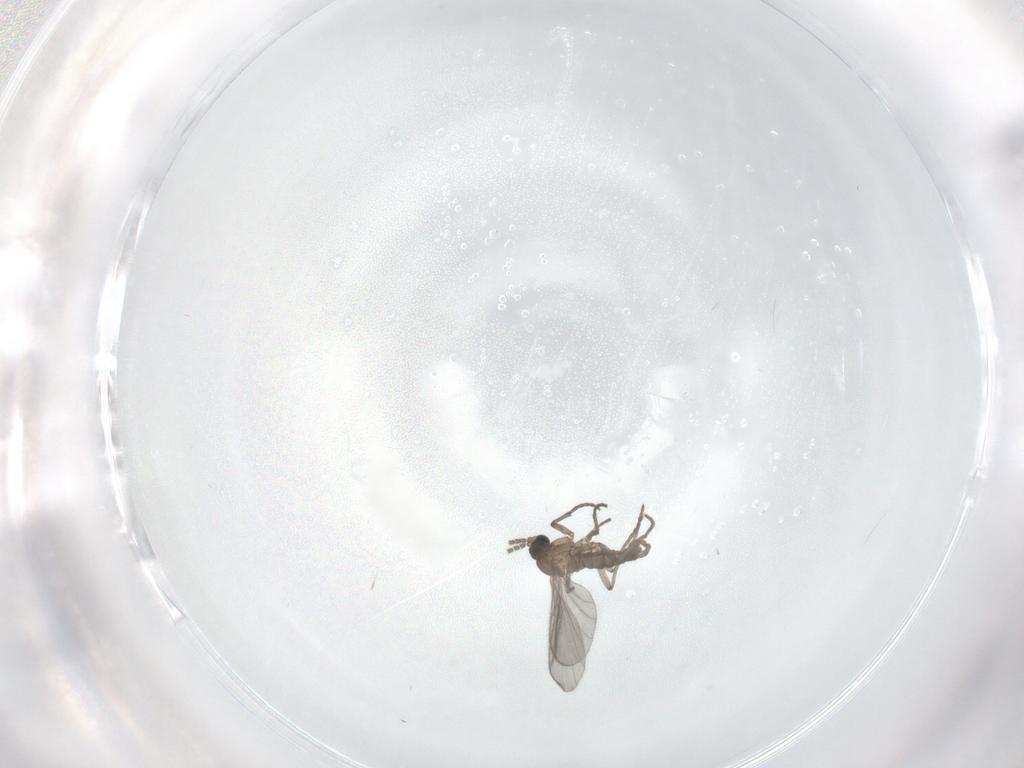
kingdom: Animalia
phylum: Arthropoda
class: Insecta
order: Diptera
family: Sciaridae
